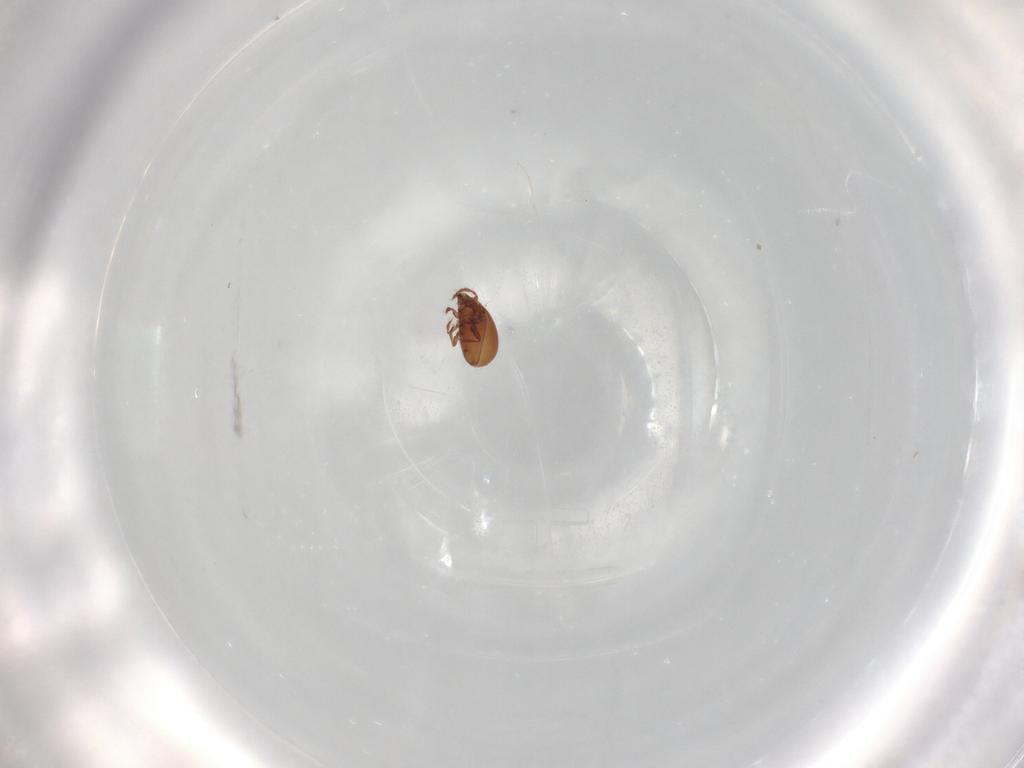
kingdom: Animalia
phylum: Arthropoda
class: Arachnida
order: Sarcoptiformes
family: Liacaridae
